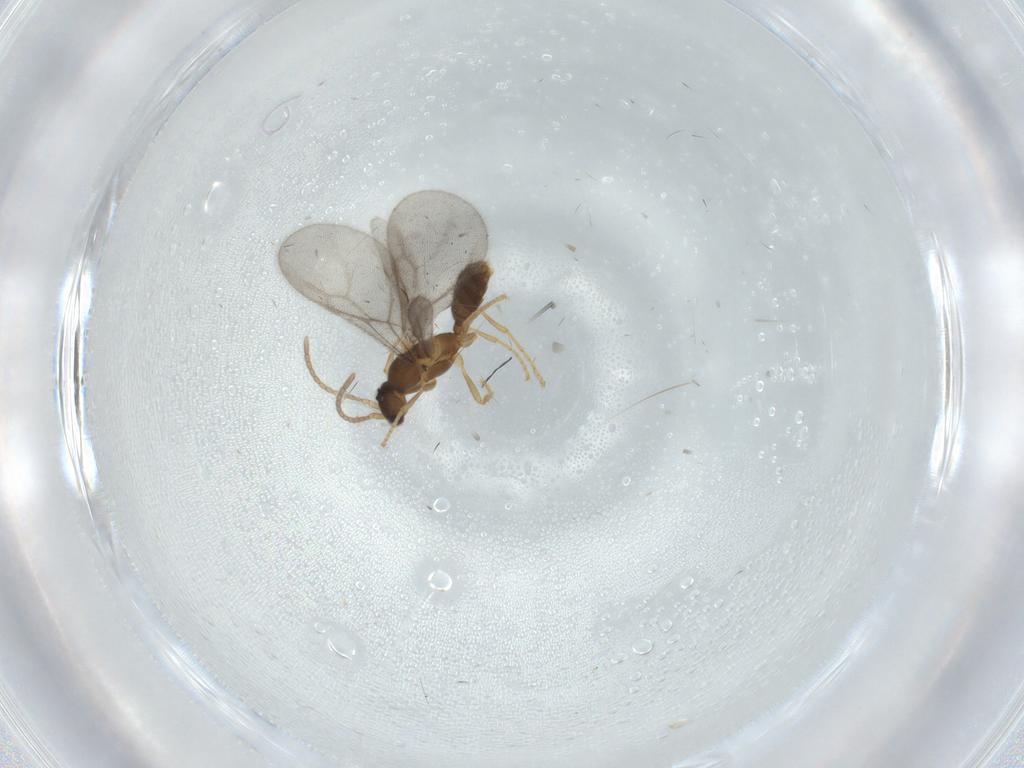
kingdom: Animalia
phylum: Arthropoda
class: Insecta
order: Hymenoptera
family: Formicidae
